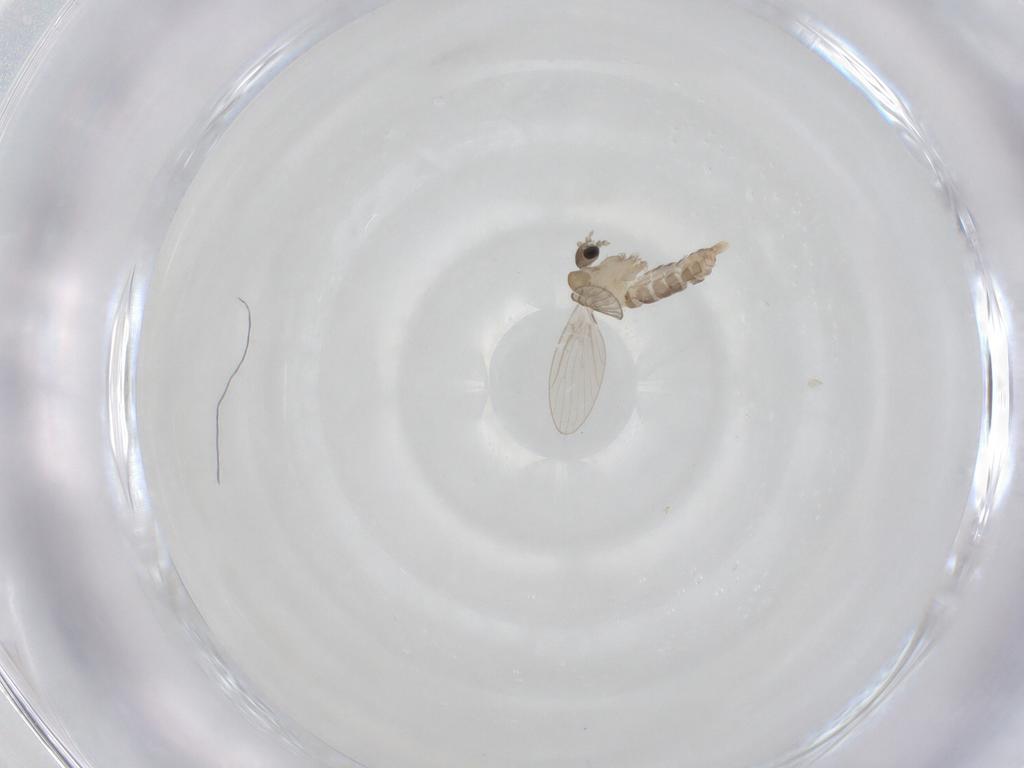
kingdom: Animalia
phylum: Arthropoda
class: Insecta
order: Diptera
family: Psychodidae
